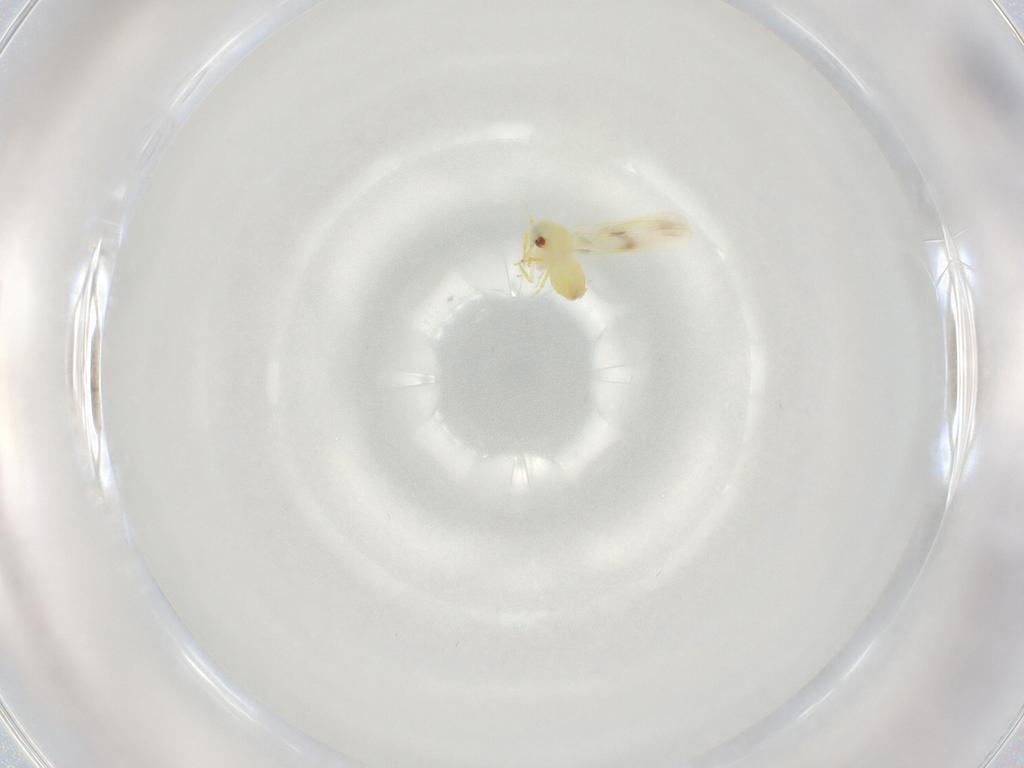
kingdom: Animalia
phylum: Arthropoda
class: Insecta
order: Hemiptera
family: Aleyrodidae
